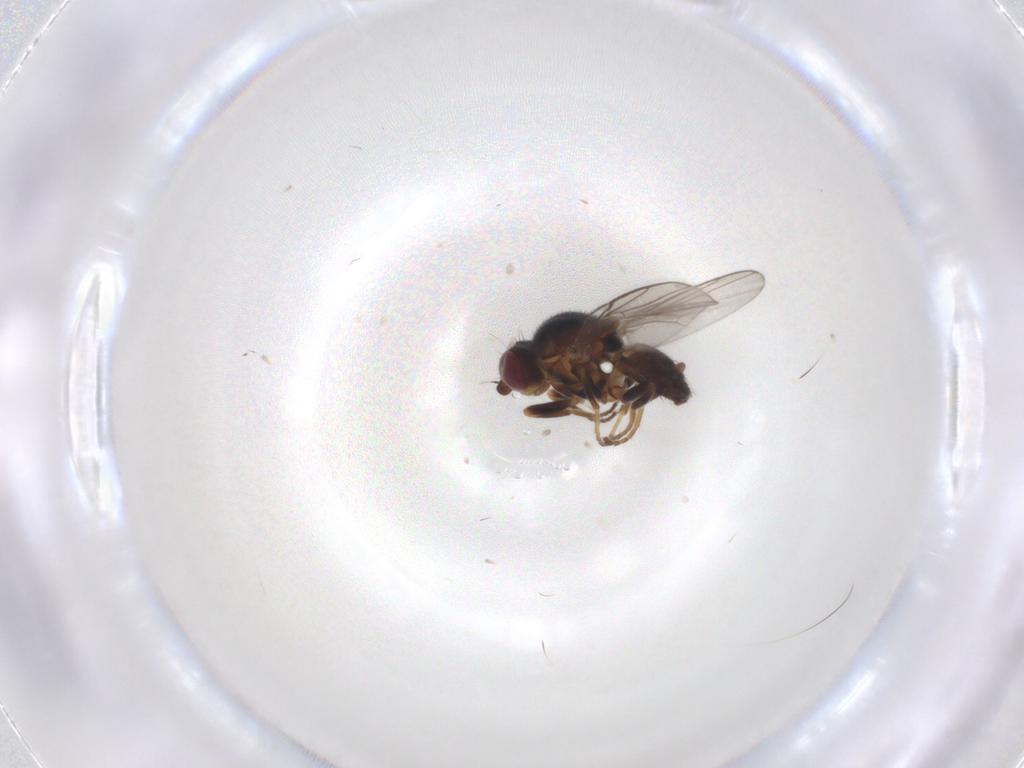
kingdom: Animalia
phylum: Arthropoda
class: Insecta
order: Diptera
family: Chloropidae
